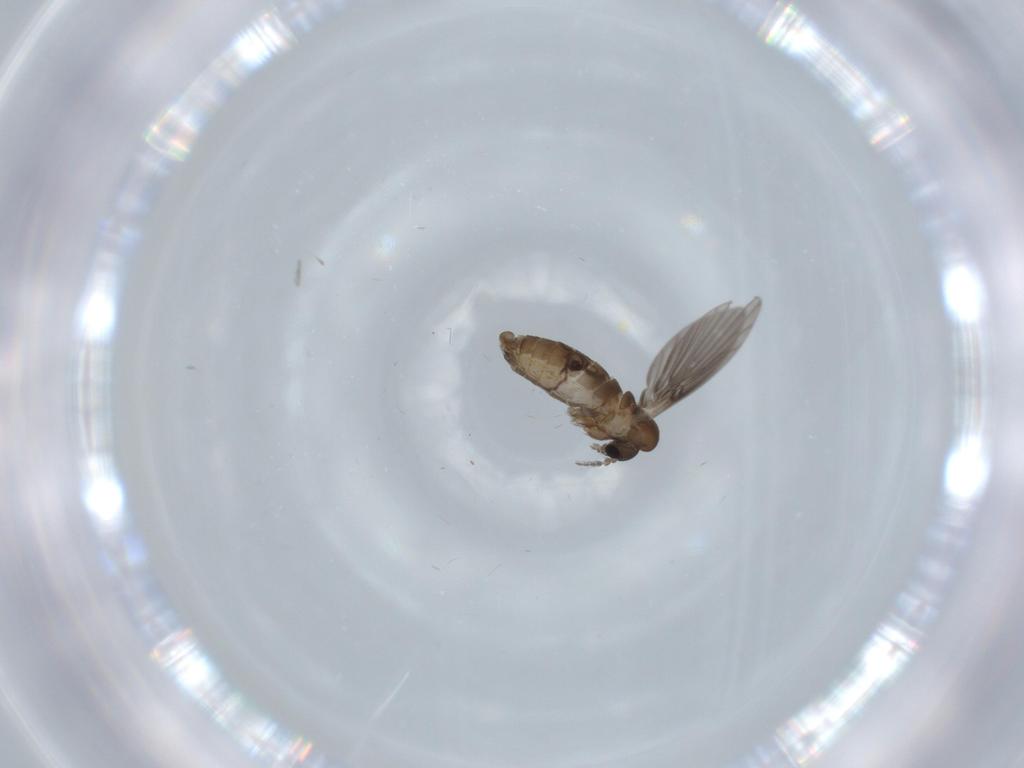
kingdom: Animalia
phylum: Arthropoda
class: Insecta
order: Diptera
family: Psychodidae
